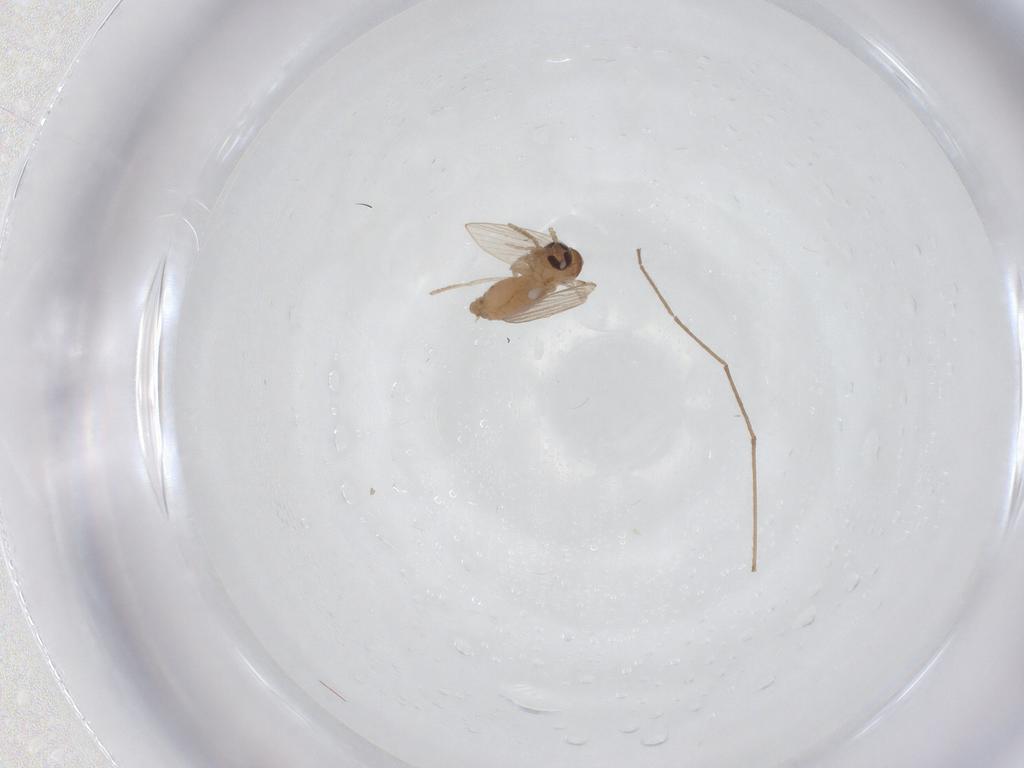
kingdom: Animalia
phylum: Arthropoda
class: Insecta
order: Diptera
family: Psychodidae
